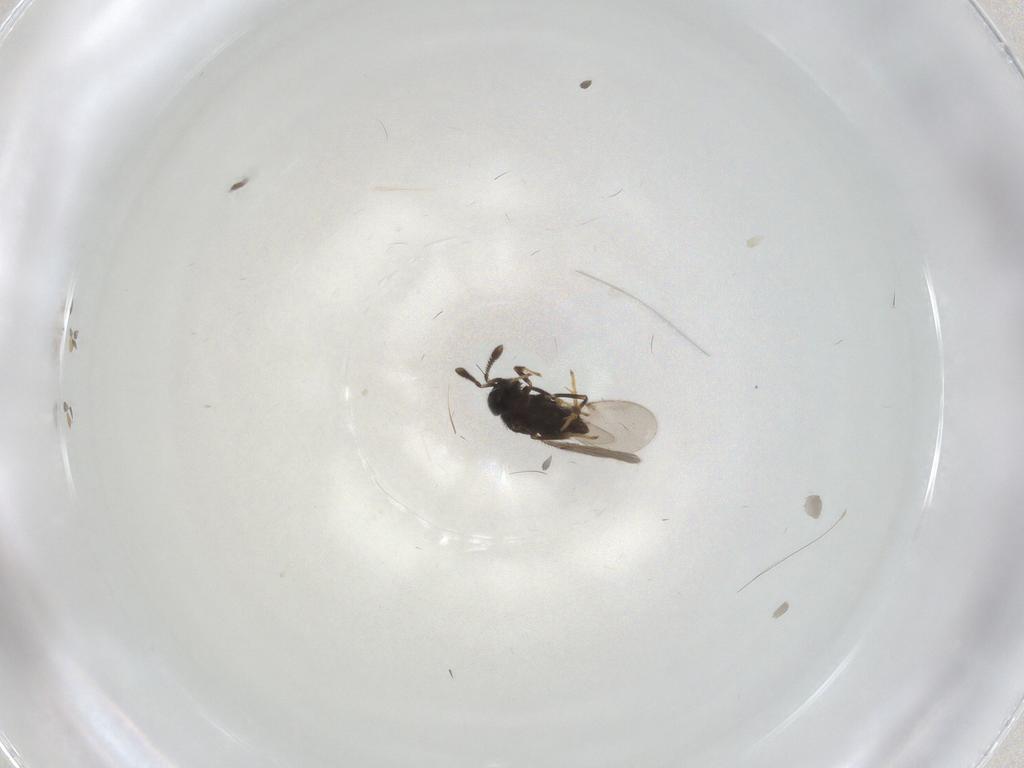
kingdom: Animalia
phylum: Arthropoda
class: Insecta
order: Hymenoptera
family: Scelionidae
